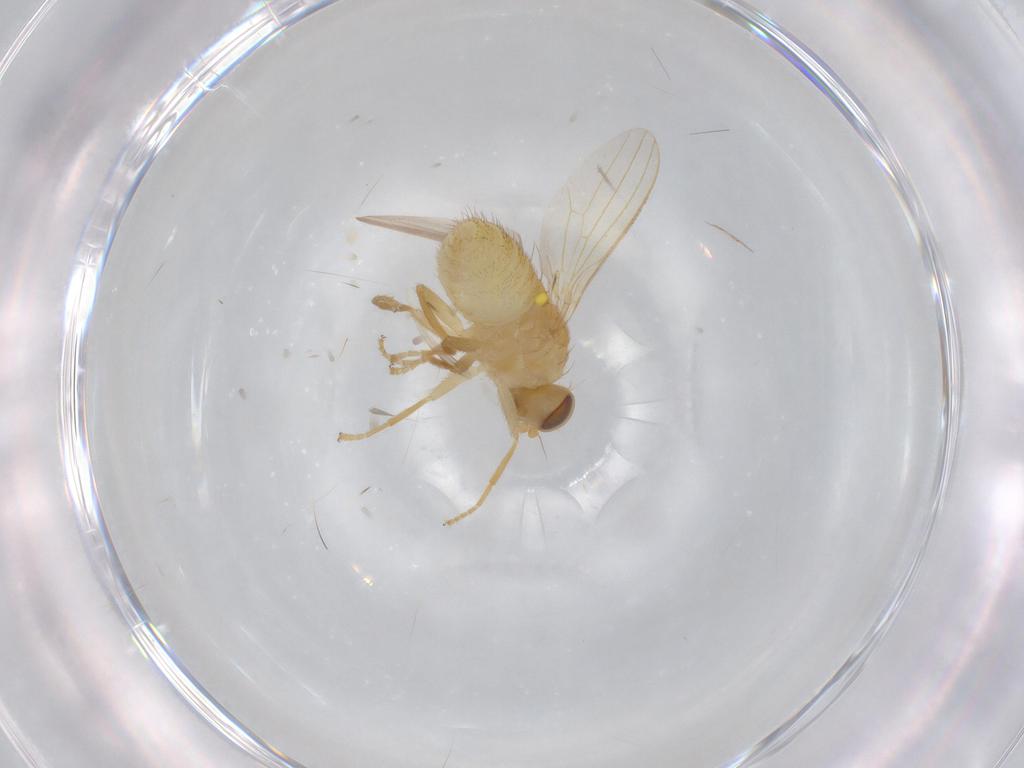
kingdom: Animalia
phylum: Arthropoda
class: Insecta
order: Diptera
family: Chyromyidae
